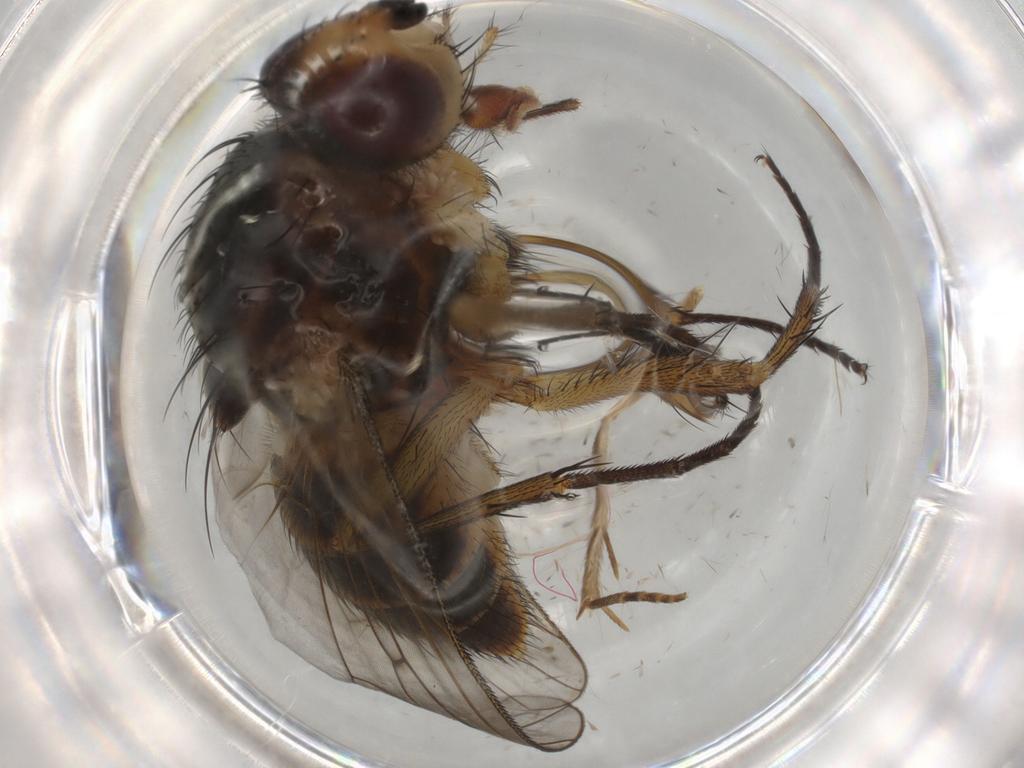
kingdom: Animalia
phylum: Arthropoda
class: Insecta
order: Diptera
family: Anthomyiidae
